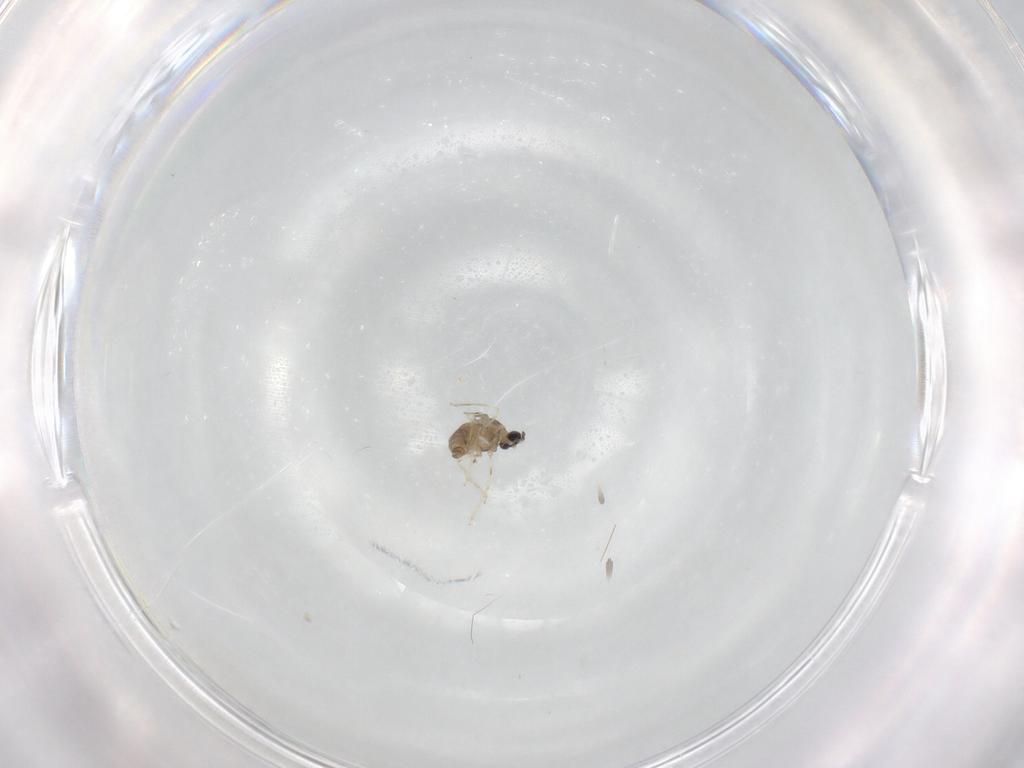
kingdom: Animalia
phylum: Arthropoda
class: Insecta
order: Diptera
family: Cecidomyiidae
